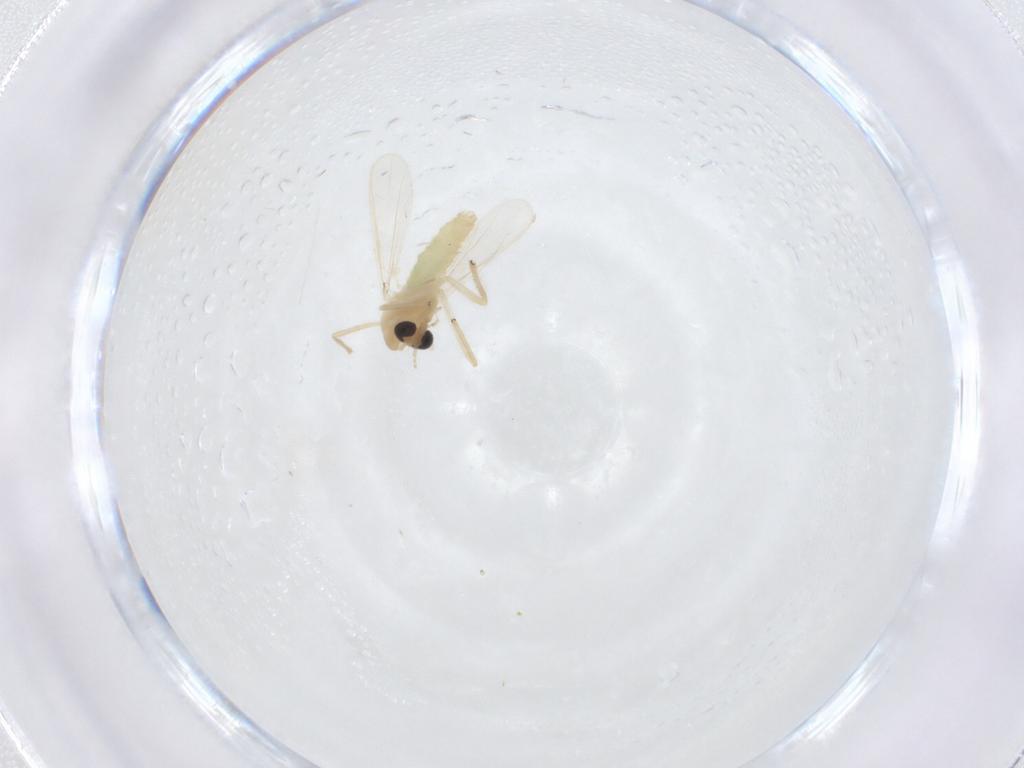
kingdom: Animalia
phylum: Arthropoda
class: Insecta
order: Diptera
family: Chironomidae
